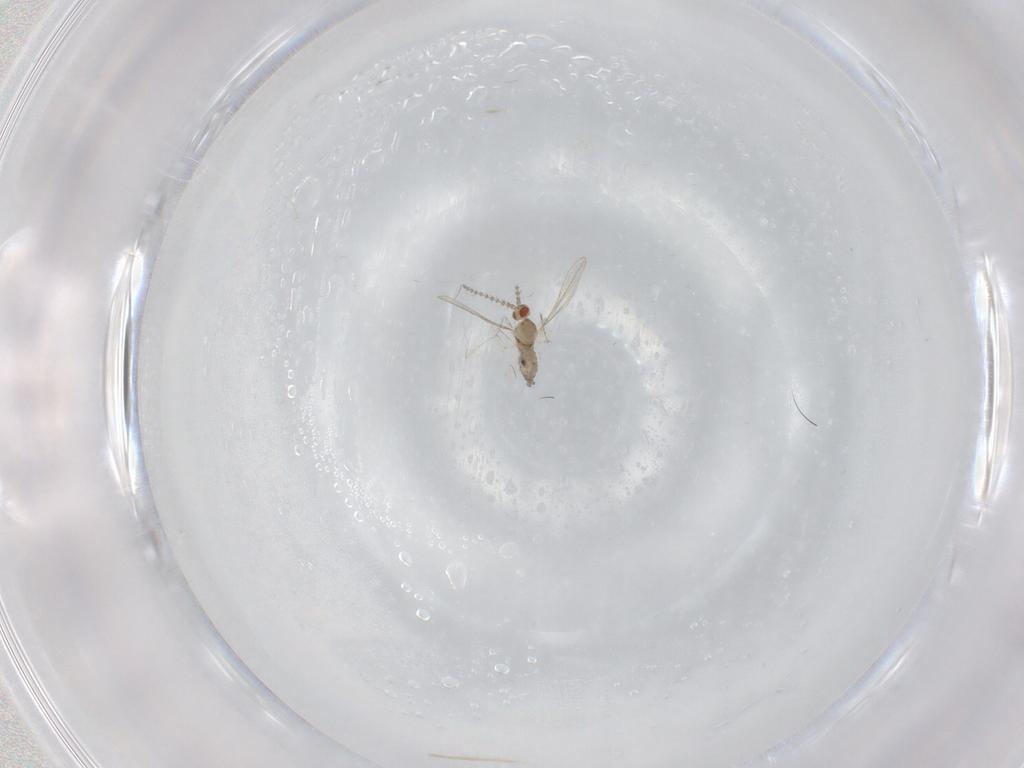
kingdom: Animalia
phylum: Arthropoda
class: Insecta
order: Diptera
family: Cecidomyiidae
